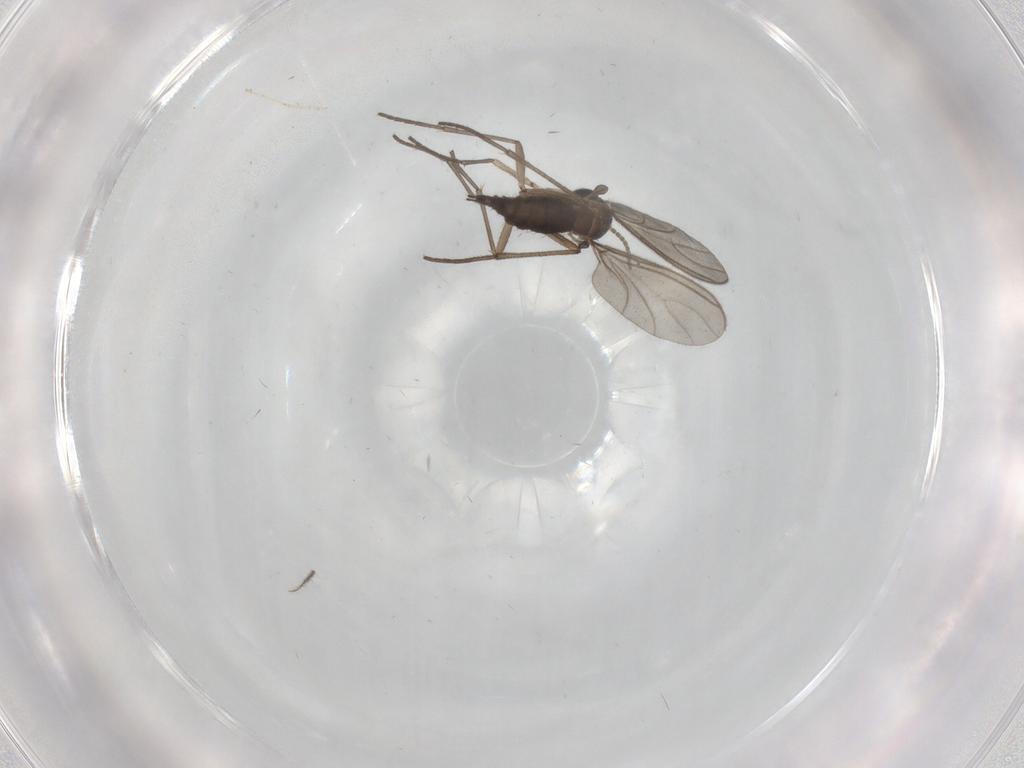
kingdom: Animalia
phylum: Arthropoda
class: Insecta
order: Diptera
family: Sciaridae
